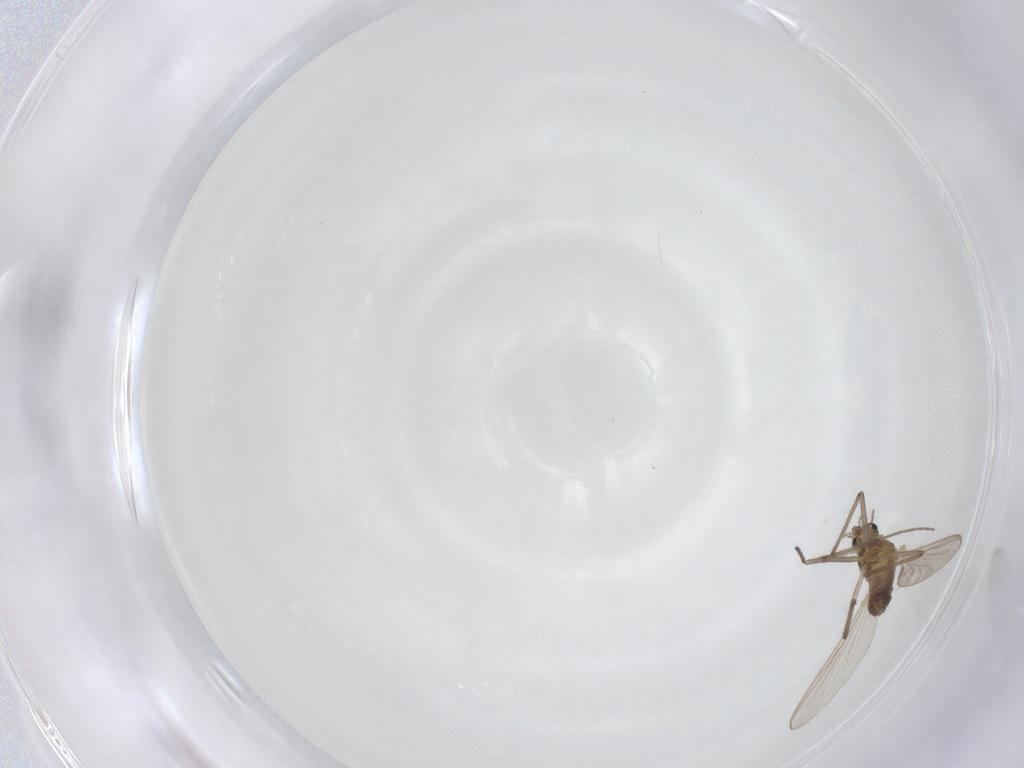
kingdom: Animalia
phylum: Arthropoda
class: Insecta
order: Diptera
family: Chironomidae
